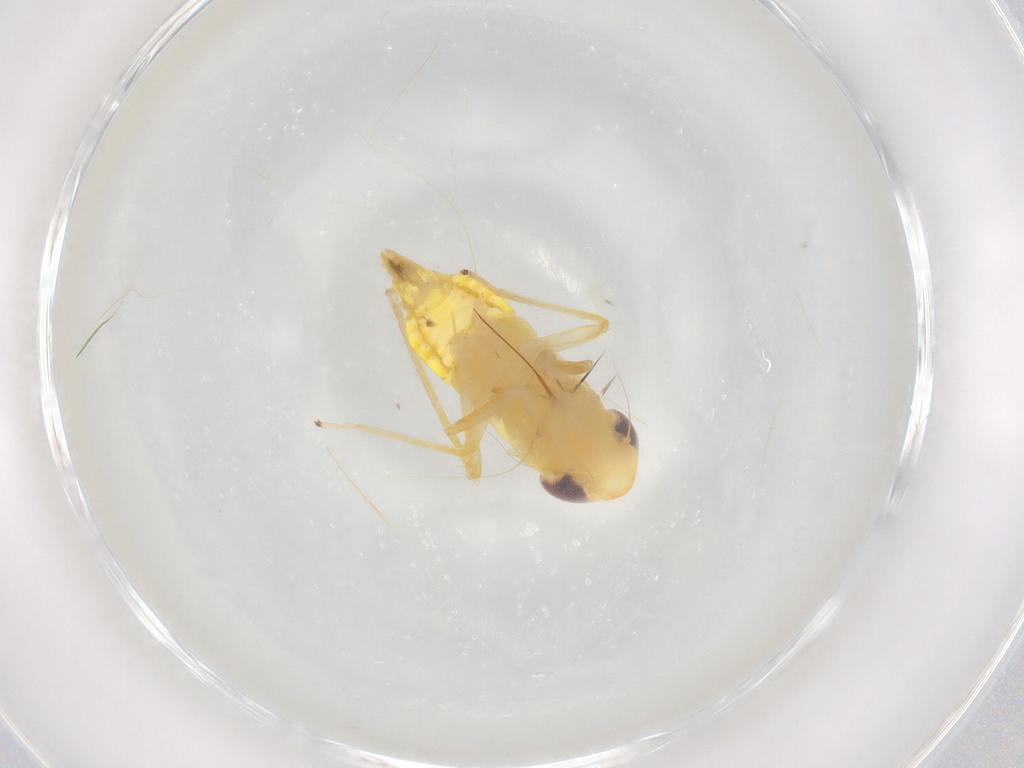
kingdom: Animalia
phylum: Arthropoda
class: Insecta
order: Hemiptera
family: Cicadellidae
